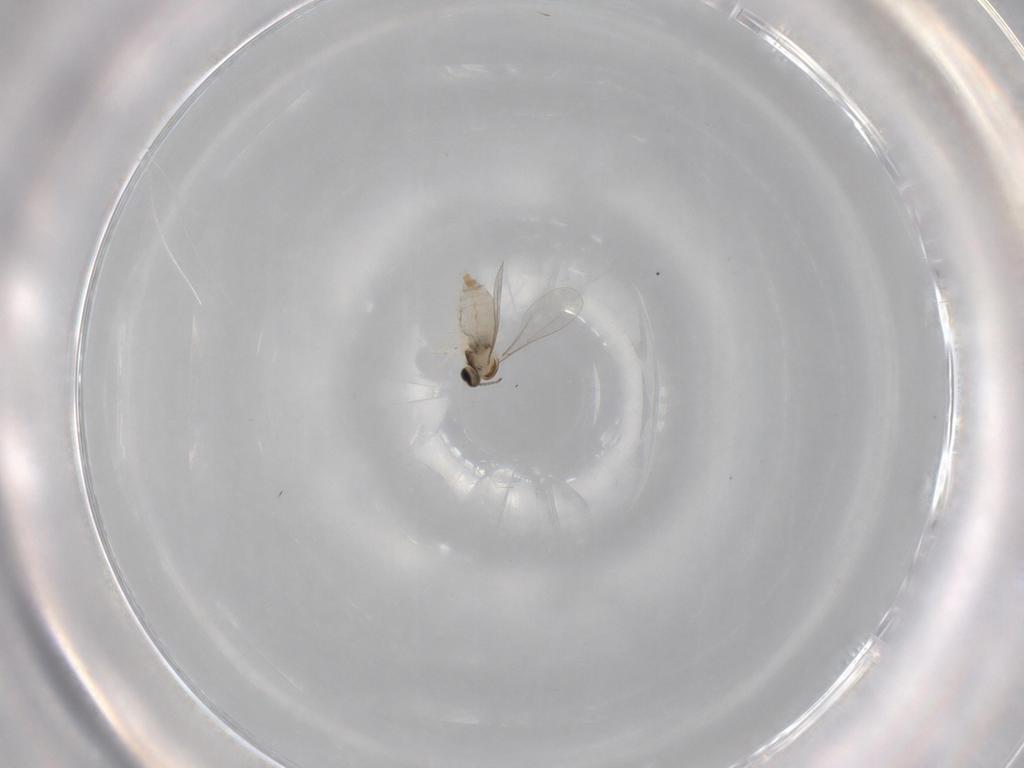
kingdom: Animalia
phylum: Arthropoda
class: Insecta
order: Diptera
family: Cecidomyiidae
